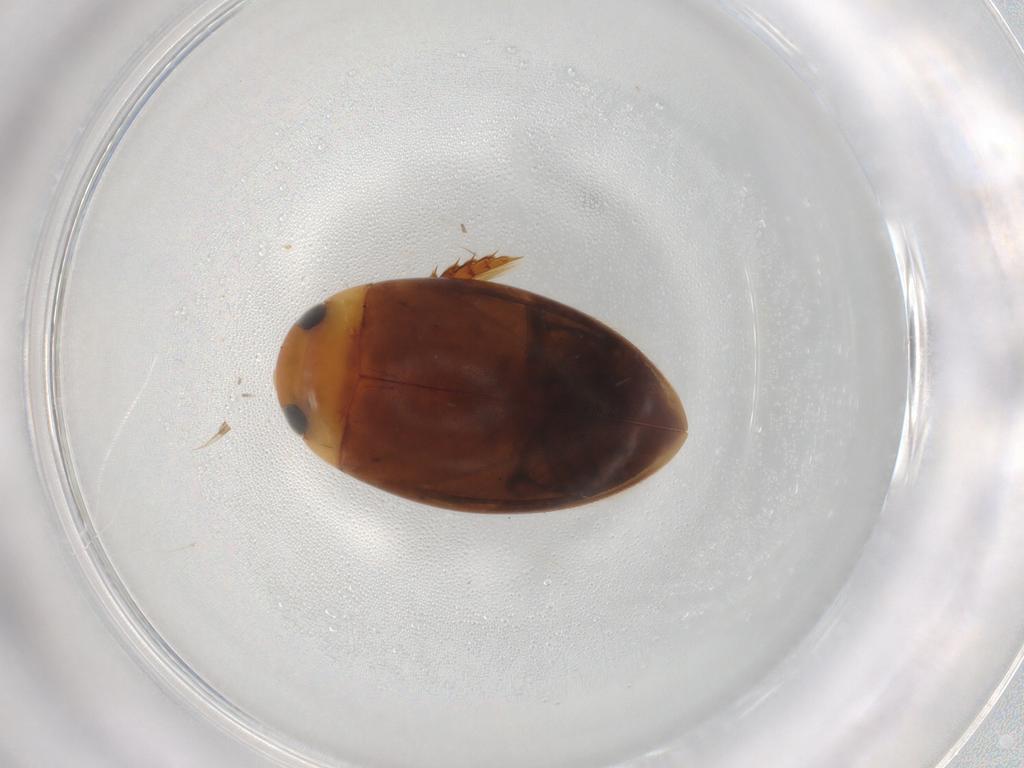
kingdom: Animalia
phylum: Arthropoda
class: Insecta
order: Coleoptera
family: Dytiscidae
